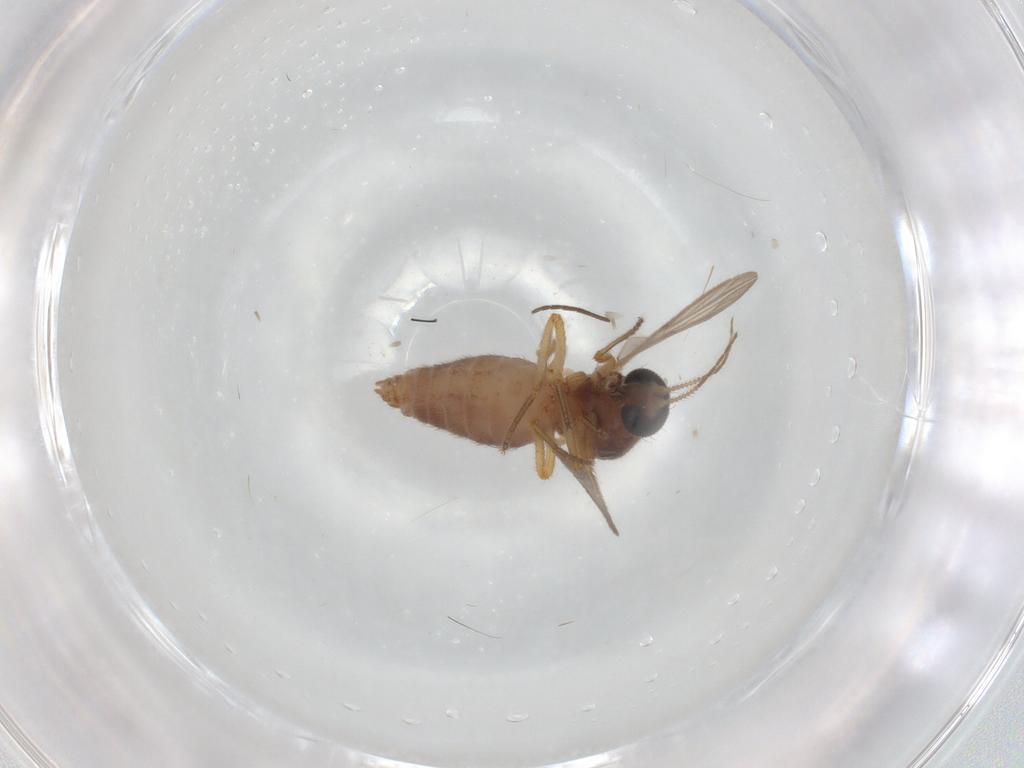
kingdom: Animalia
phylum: Arthropoda
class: Insecta
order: Diptera
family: Ceratopogonidae
